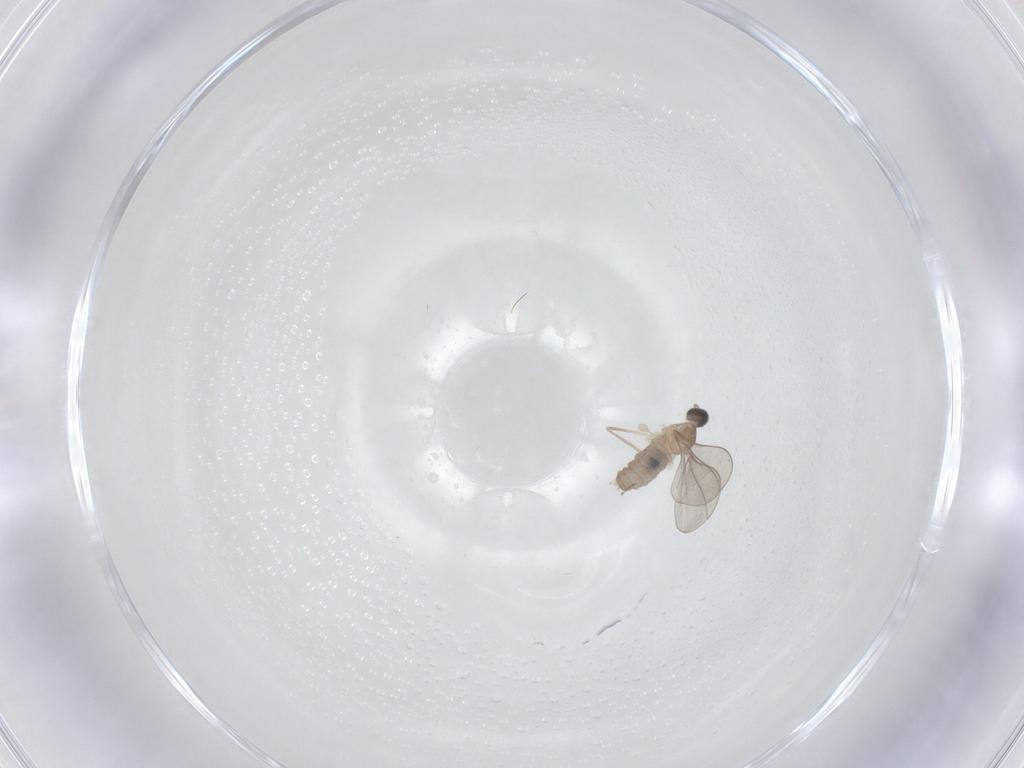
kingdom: Animalia
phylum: Arthropoda
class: Insecta
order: Diptera
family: Cecidomyiidae
